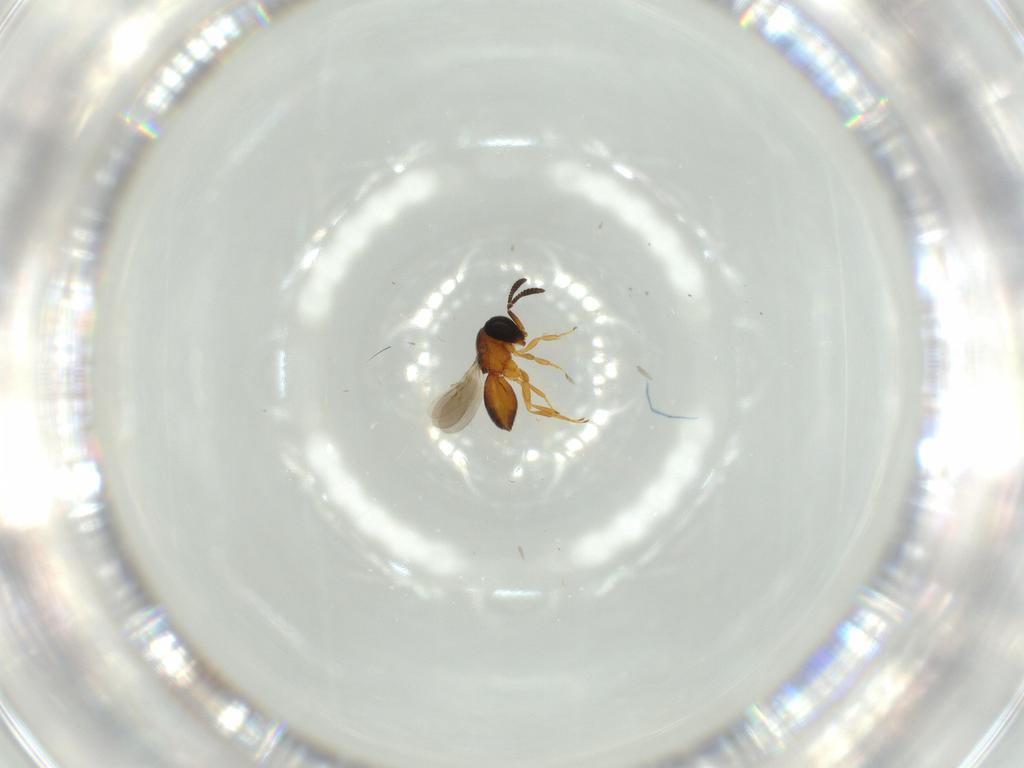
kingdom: Animalia
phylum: Arthropoda
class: Insecta
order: Hymenoptera
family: Scelionidae
